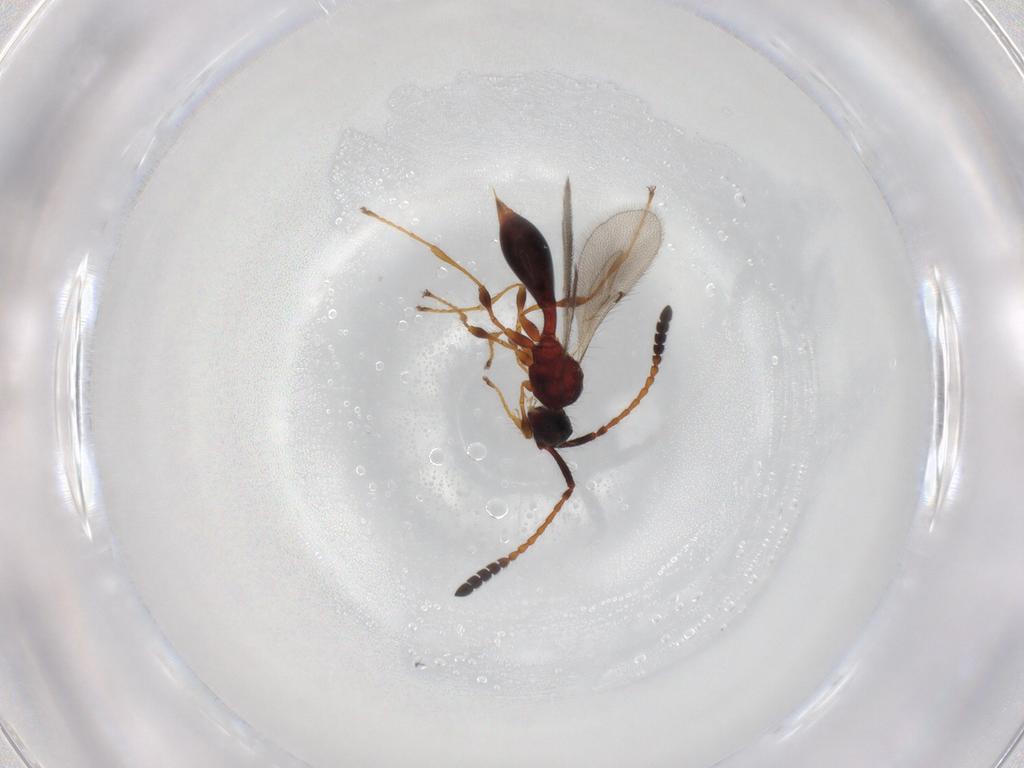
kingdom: Animalia
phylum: Arthropoda
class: Insecta
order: Hymenoptera
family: Diapriidae
